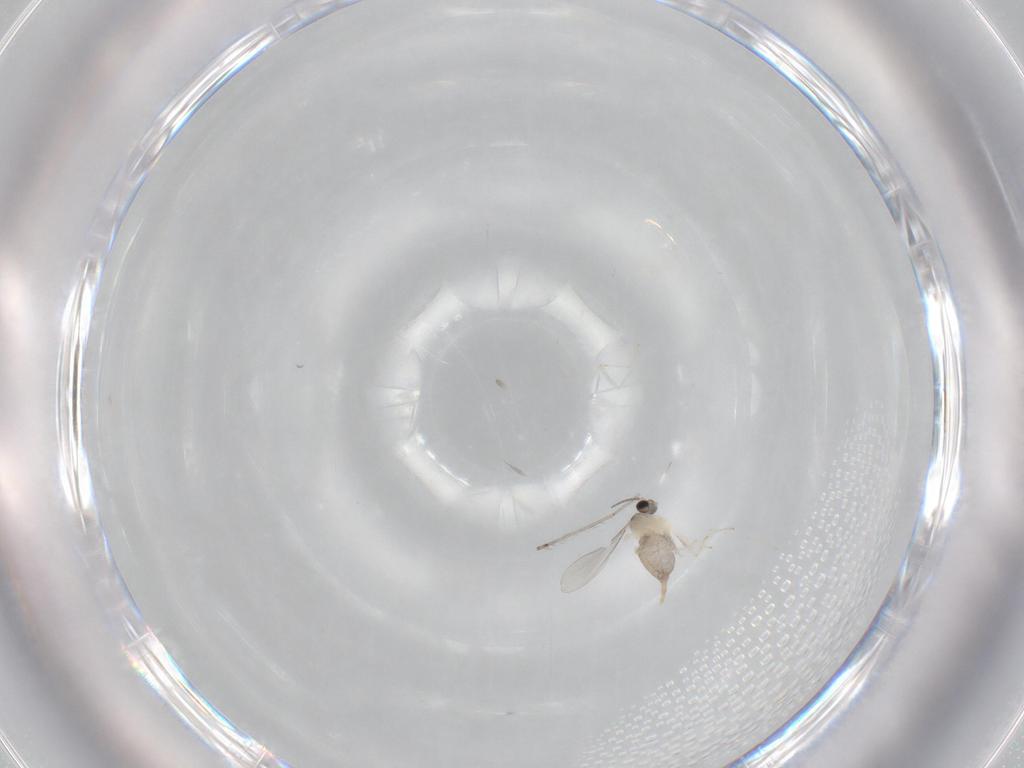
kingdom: Animalia
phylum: Arthropoda
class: Insecta
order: Diptera
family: Cecidomyiidae
